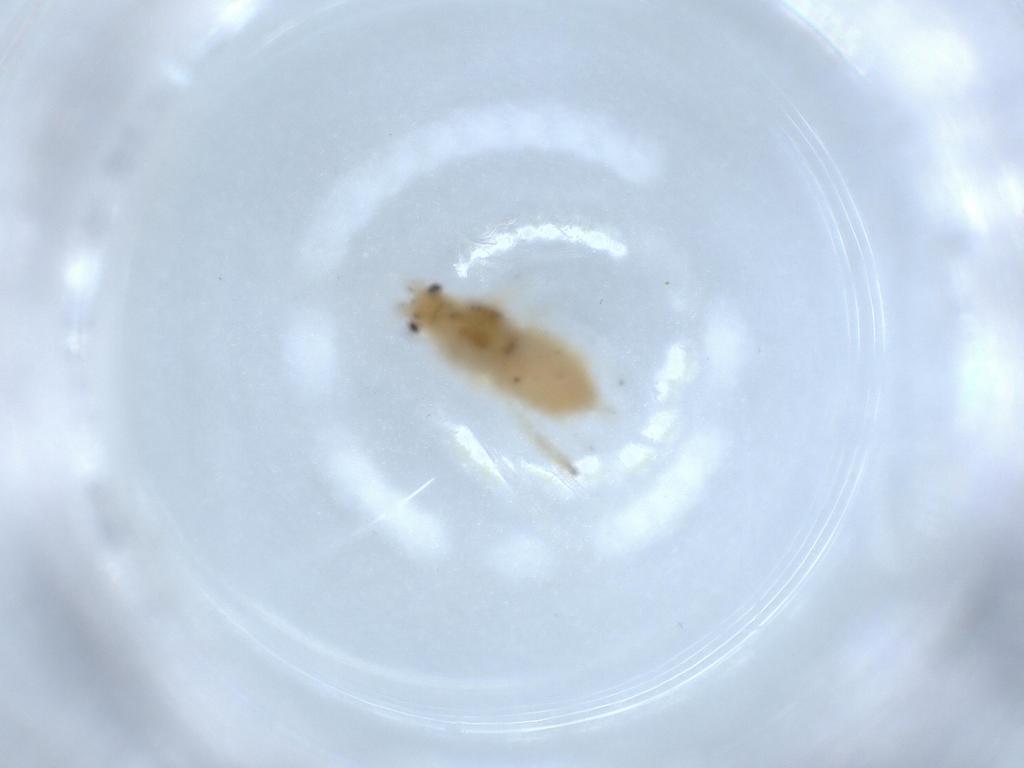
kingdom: Animalia
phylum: Arthropoda
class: Insecta
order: Hemiptera
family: Aphididae
